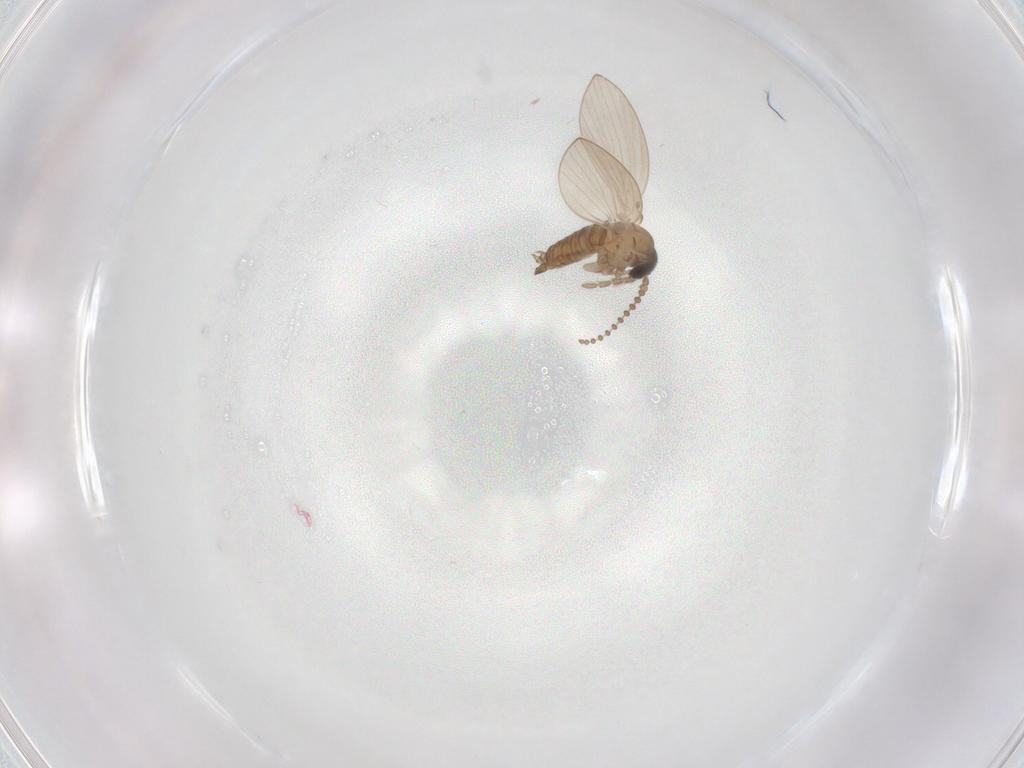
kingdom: Animalia
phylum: Arthropoda
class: Insecta
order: Diptera
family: Psychodidae
